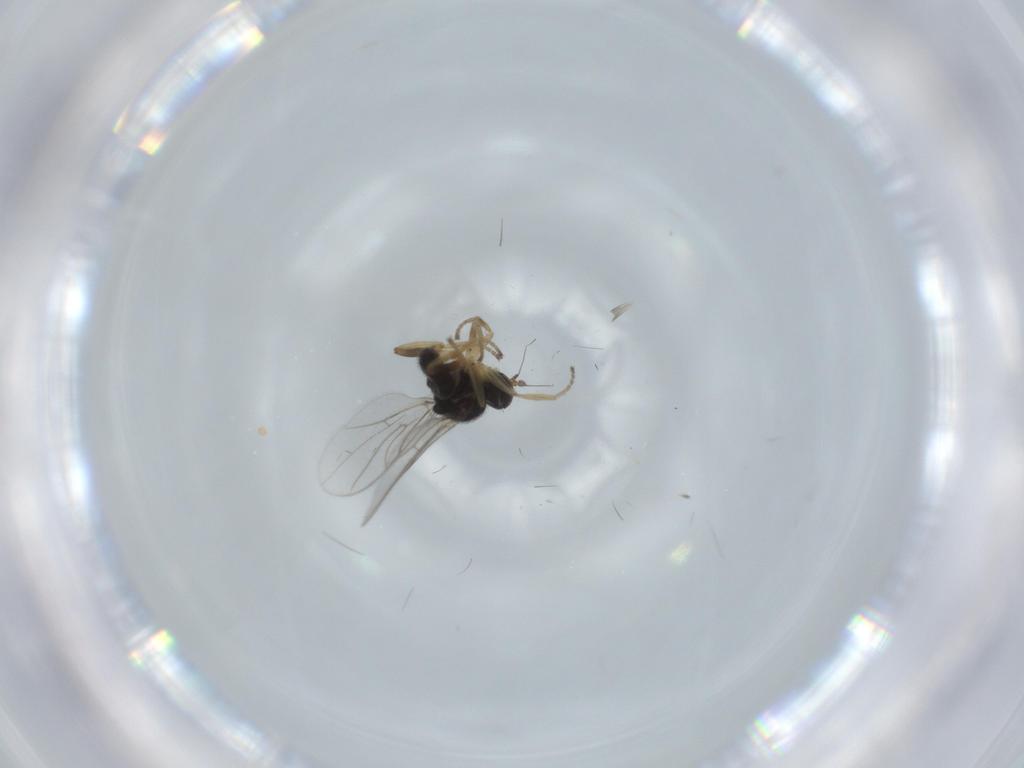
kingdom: Animalia
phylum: Arthropoda
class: Insecta
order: Diptera
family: Hybotidae
